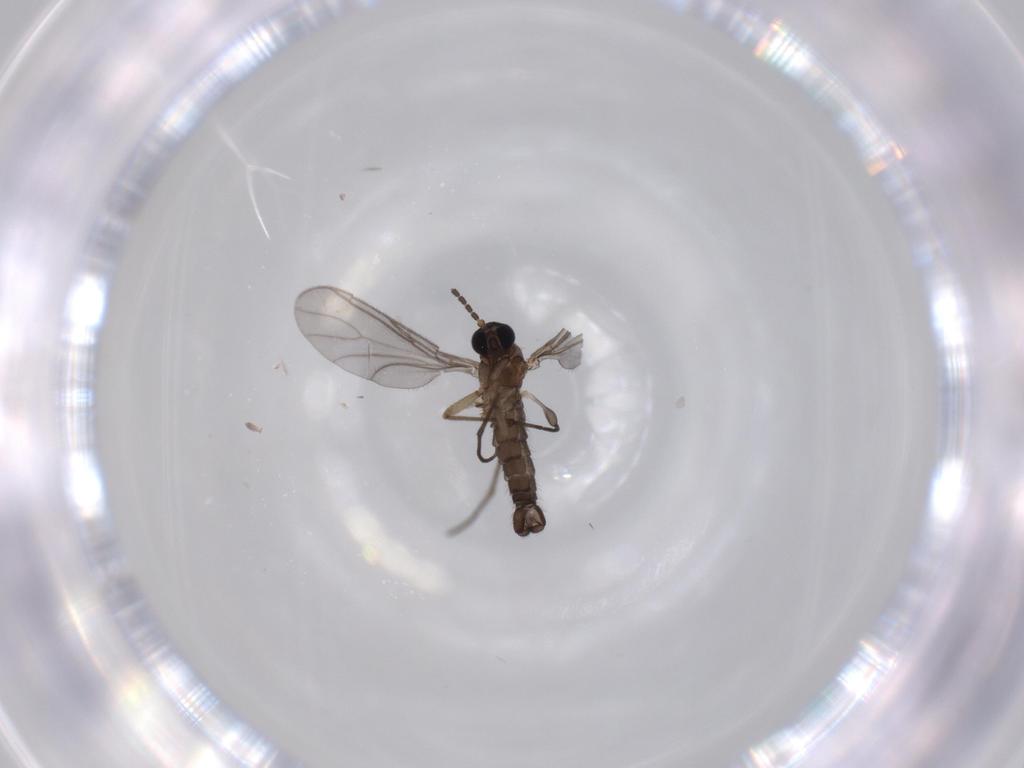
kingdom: Animalia
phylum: Arthropoda
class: Insecta
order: Diptera
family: Sciaridae
